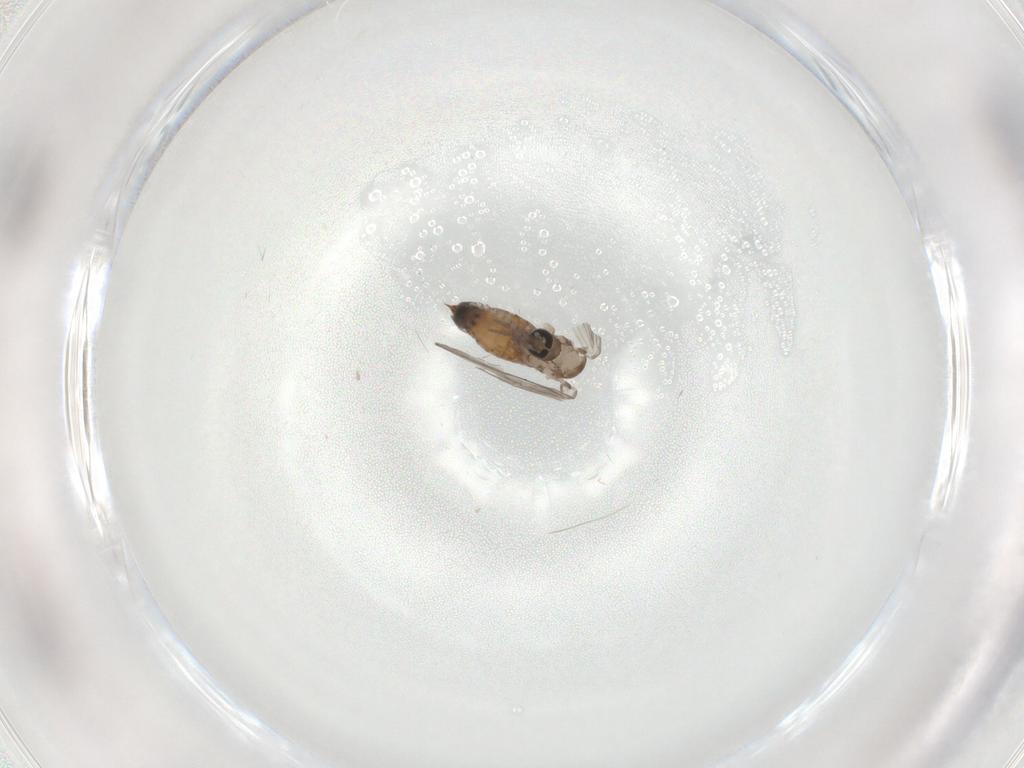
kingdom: Animalia
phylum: Arthropoda
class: Insecta
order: Diptera
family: Psychodidae
